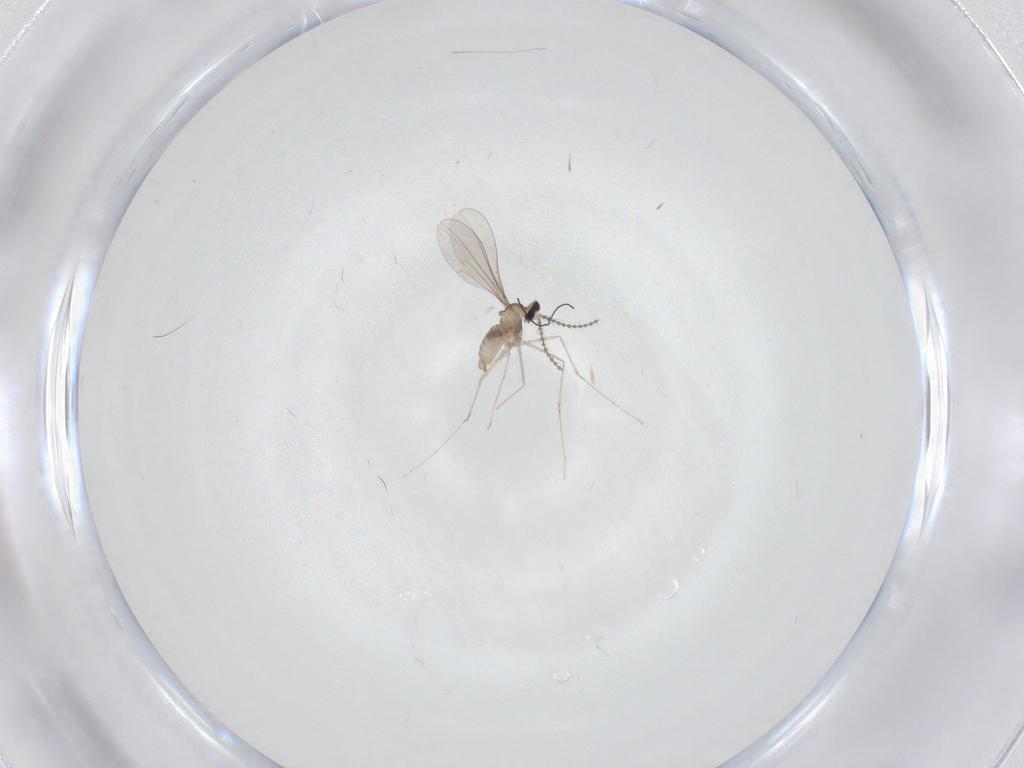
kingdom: Animalia
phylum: Arthropoda
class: Insecta
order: Diptera
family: Cecidomyiidae
